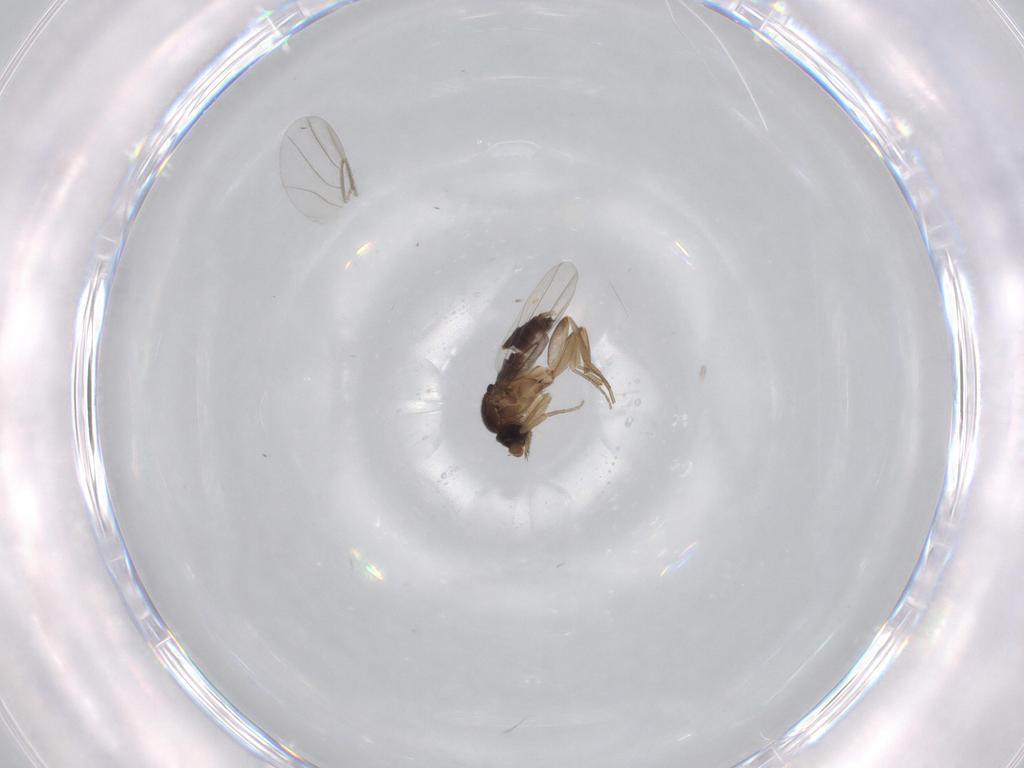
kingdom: Animalia
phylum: Arthropoda
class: Insecta
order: Diptera
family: Phoridae
